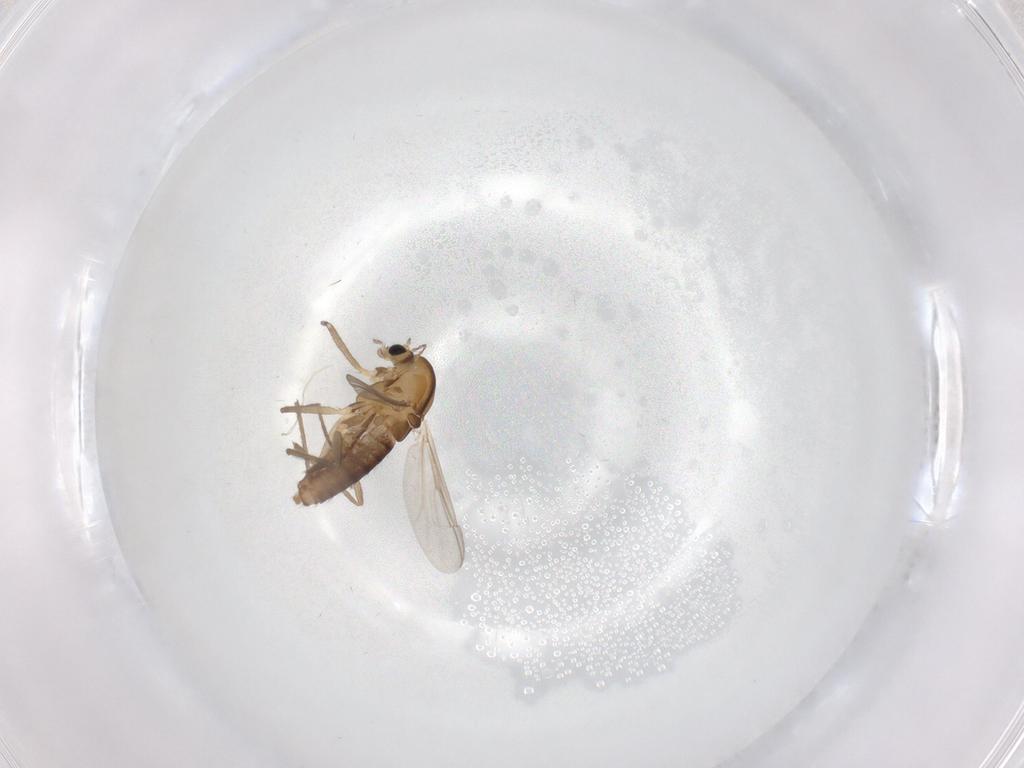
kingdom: Animalia
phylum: Arthropoda
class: Insecta
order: Diptera
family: Chironomidae
